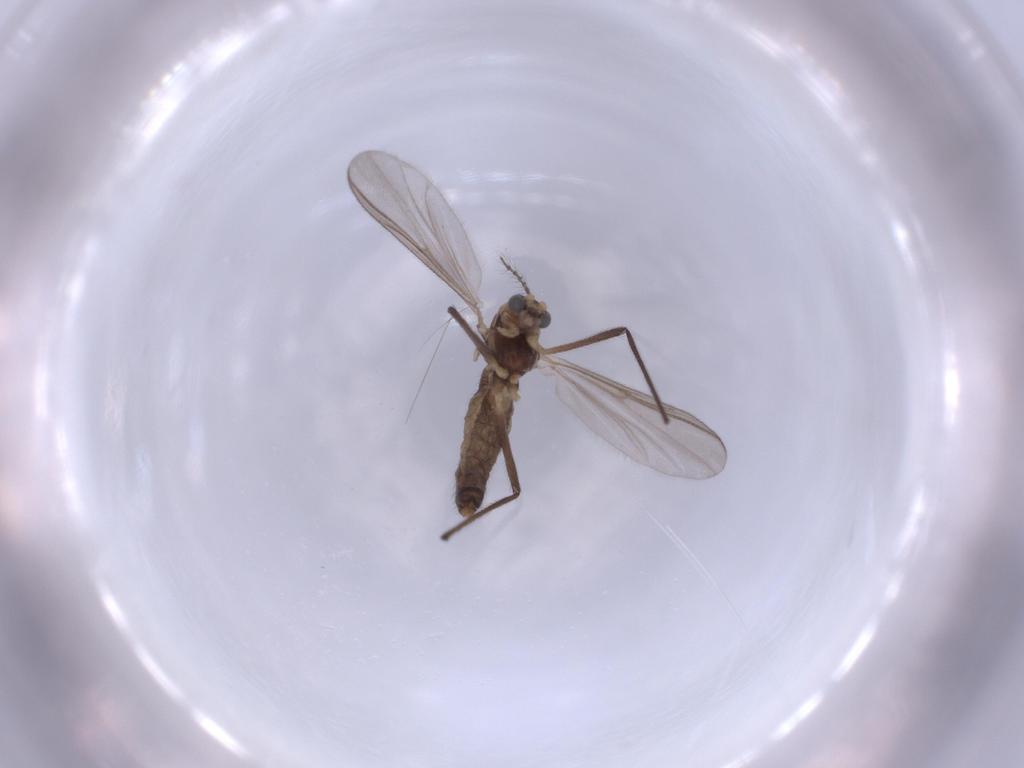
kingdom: Animalia
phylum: Arthropoda
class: Insecta
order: Diptera
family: Chironomidae
